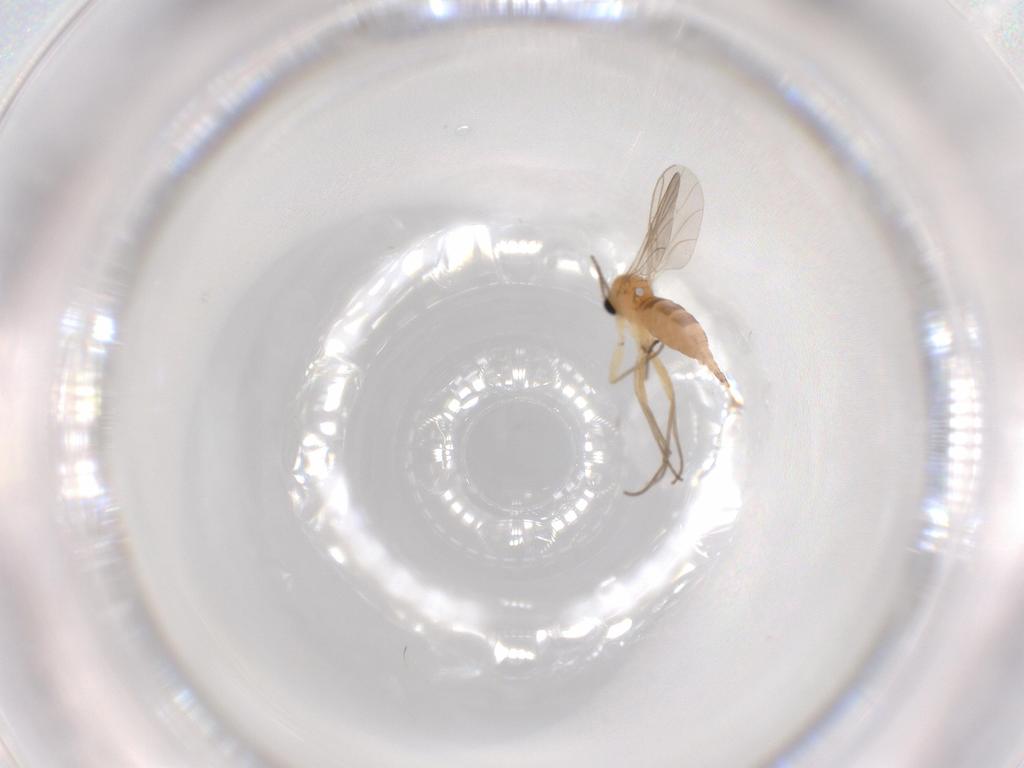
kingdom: Animalia
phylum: Arthropoda
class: Insecta
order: Diptera
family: Sciaridae
